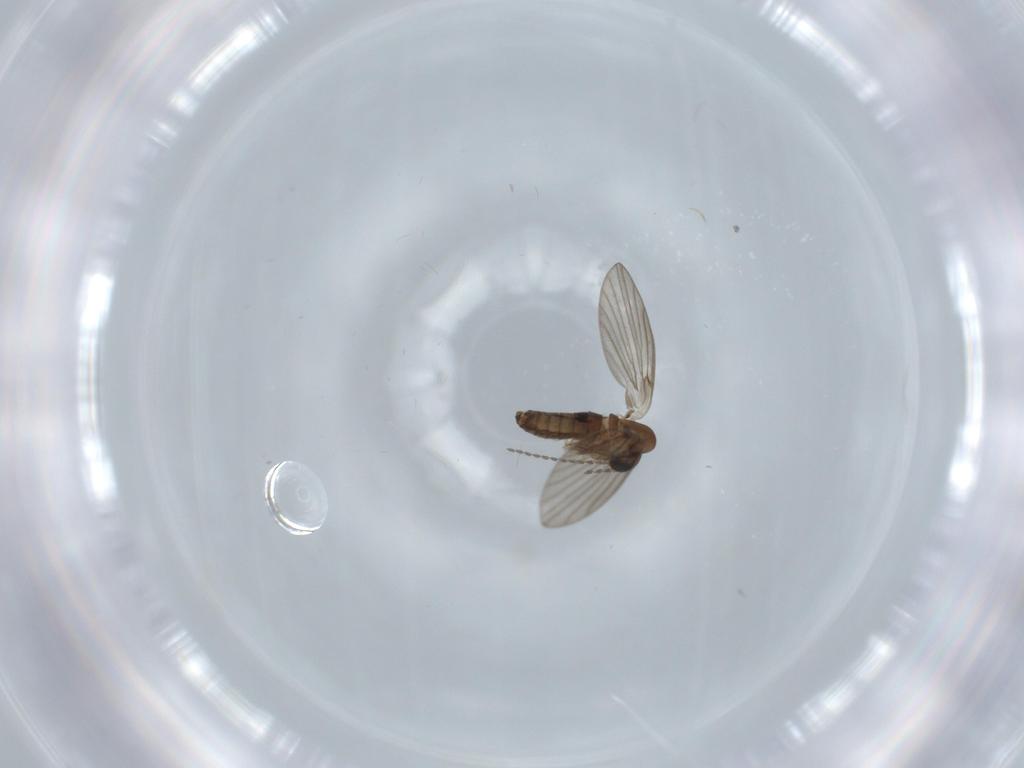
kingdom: Animalia
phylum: Arthropoda
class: Insecta
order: Diptera
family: Psychodidae
